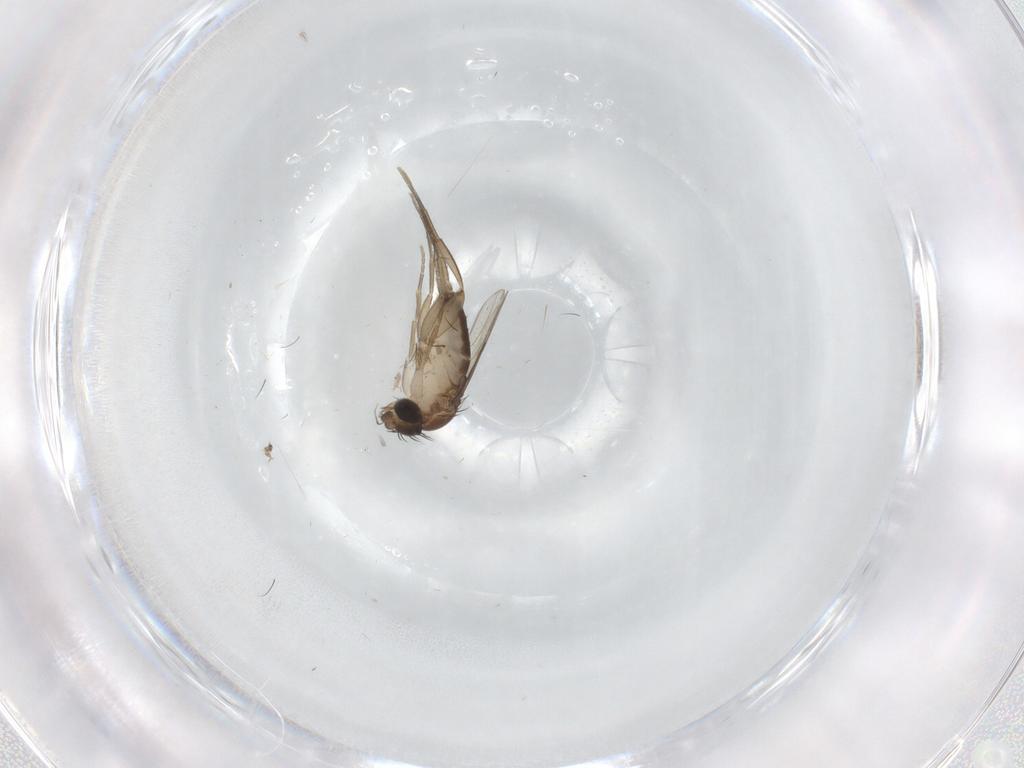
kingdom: Animalia
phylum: Arthropoda
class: Insecta
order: Diptera
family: Phoridae
